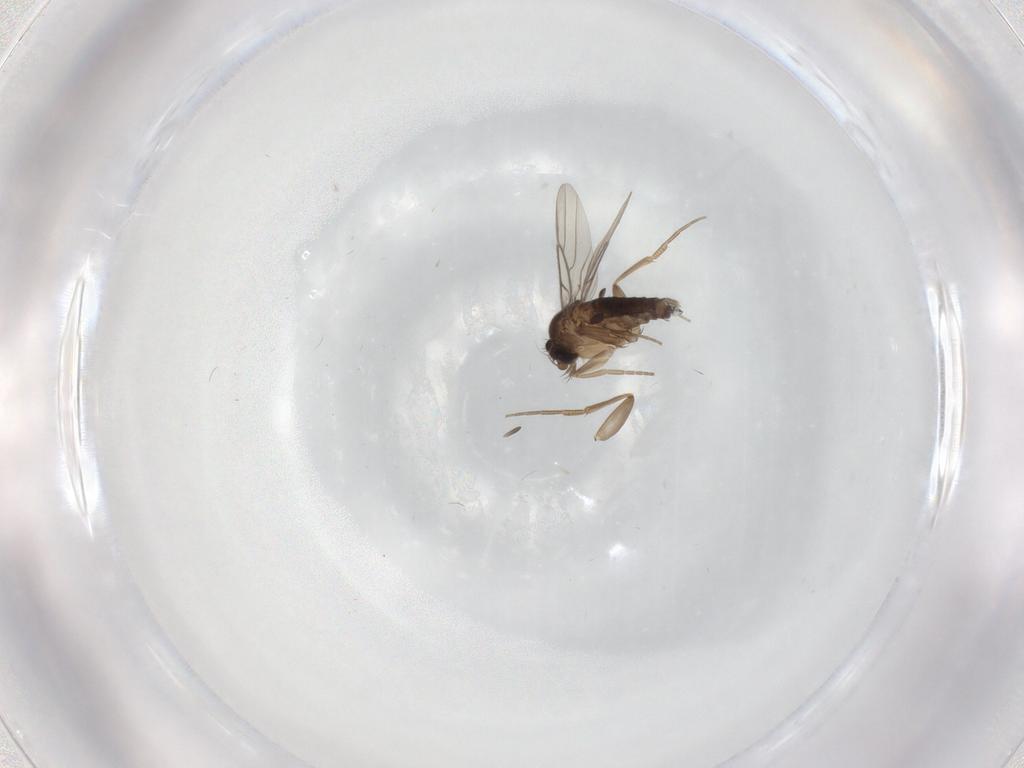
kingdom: Animalia
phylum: Arthropoda
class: Insecta
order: Diptera
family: Phoridae
